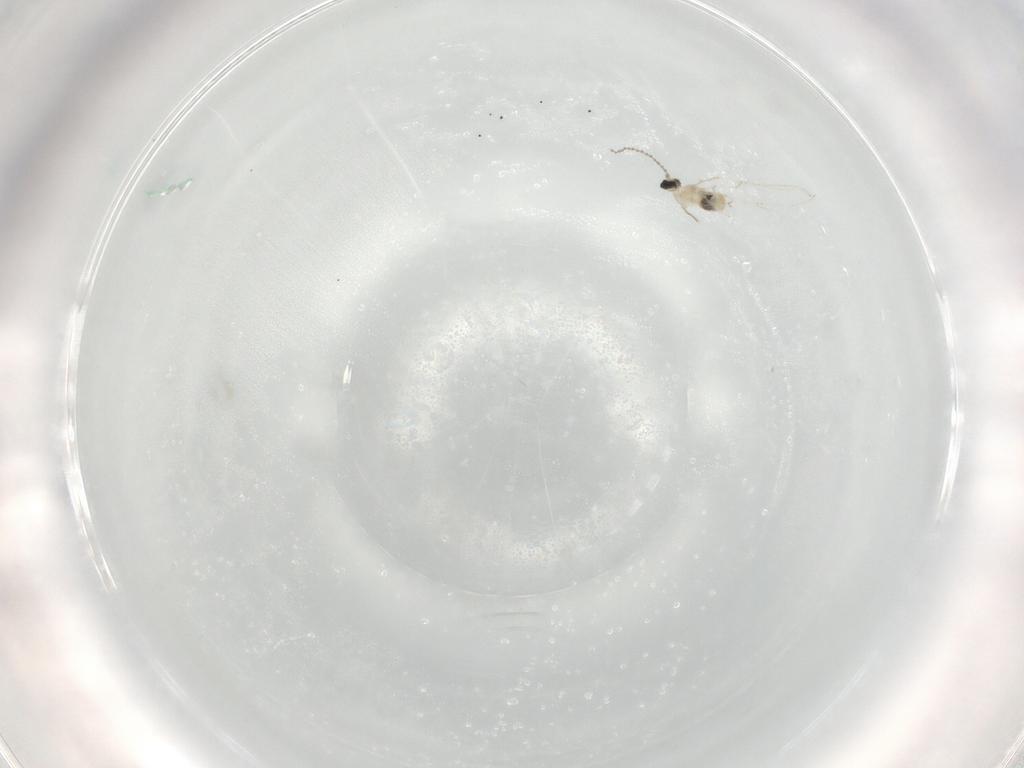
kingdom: Animalia
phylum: Arthropoda
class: Insecta
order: Diptera
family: Cecidomyiidae
